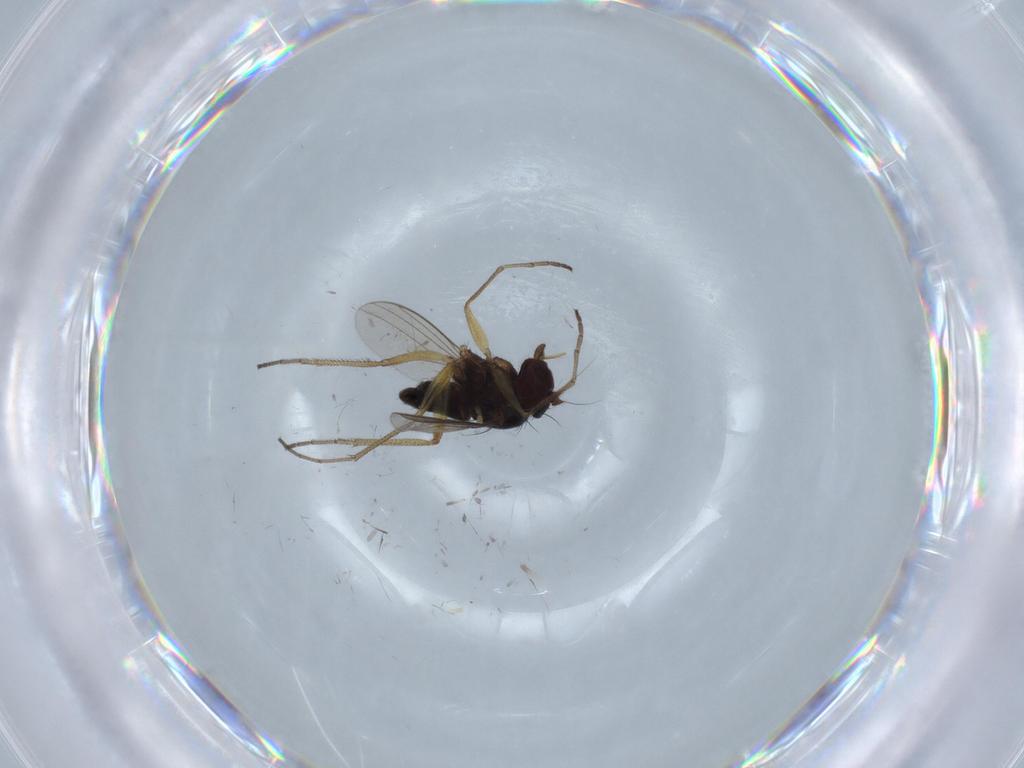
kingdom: Animalia
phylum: Arthropoda
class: Insecta
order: Diptera
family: Dolichopodidae
